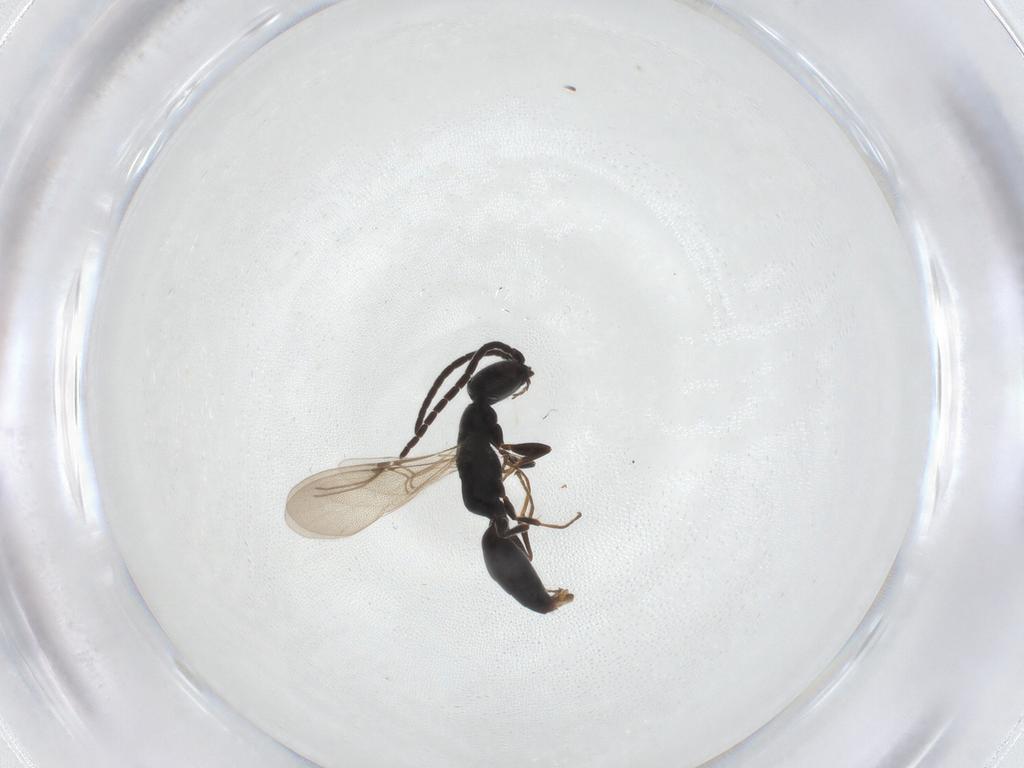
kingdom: Animalia
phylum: Arthropoda
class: Insecta
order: Hymenoptera
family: Bethylidae
